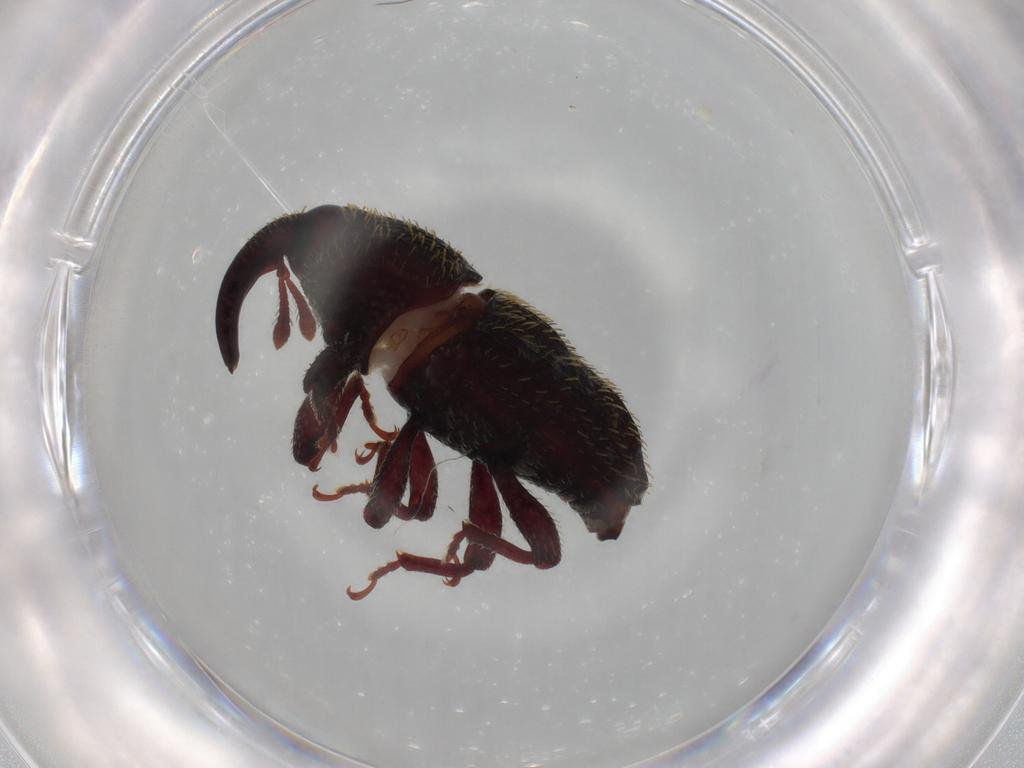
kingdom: Animalia
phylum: Arthropoda
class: Insecta
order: Coleoptera
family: Curculionidae
